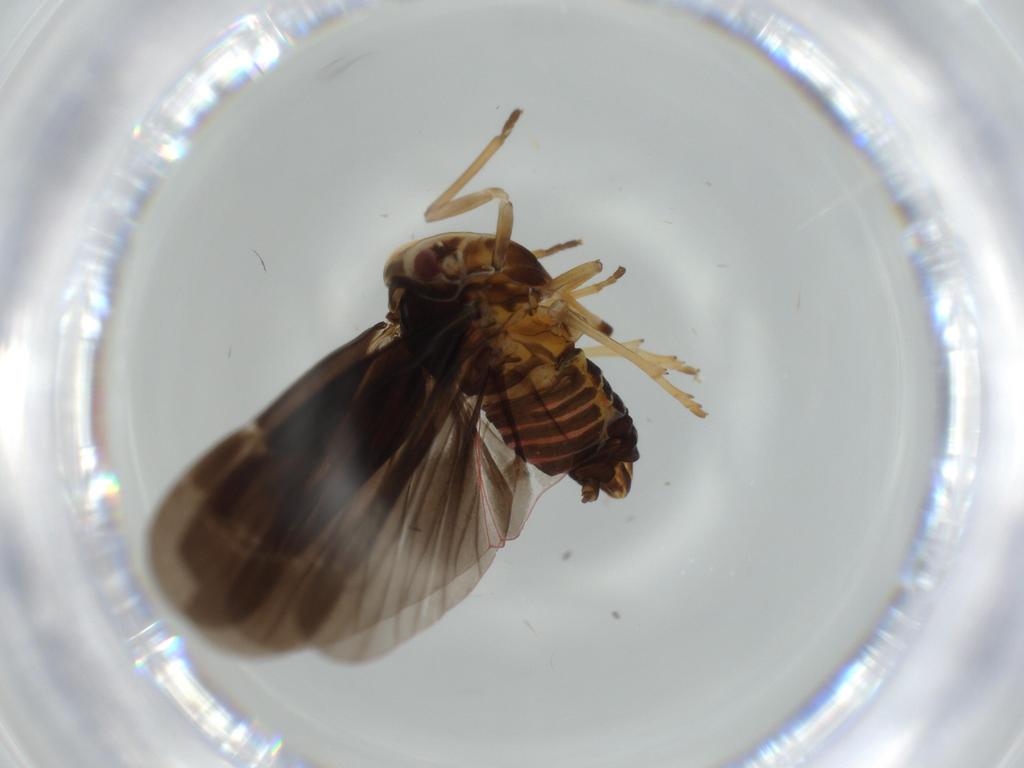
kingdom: Animalia
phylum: Arthropoda
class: Insecta
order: Hemiptera
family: Derbidae
